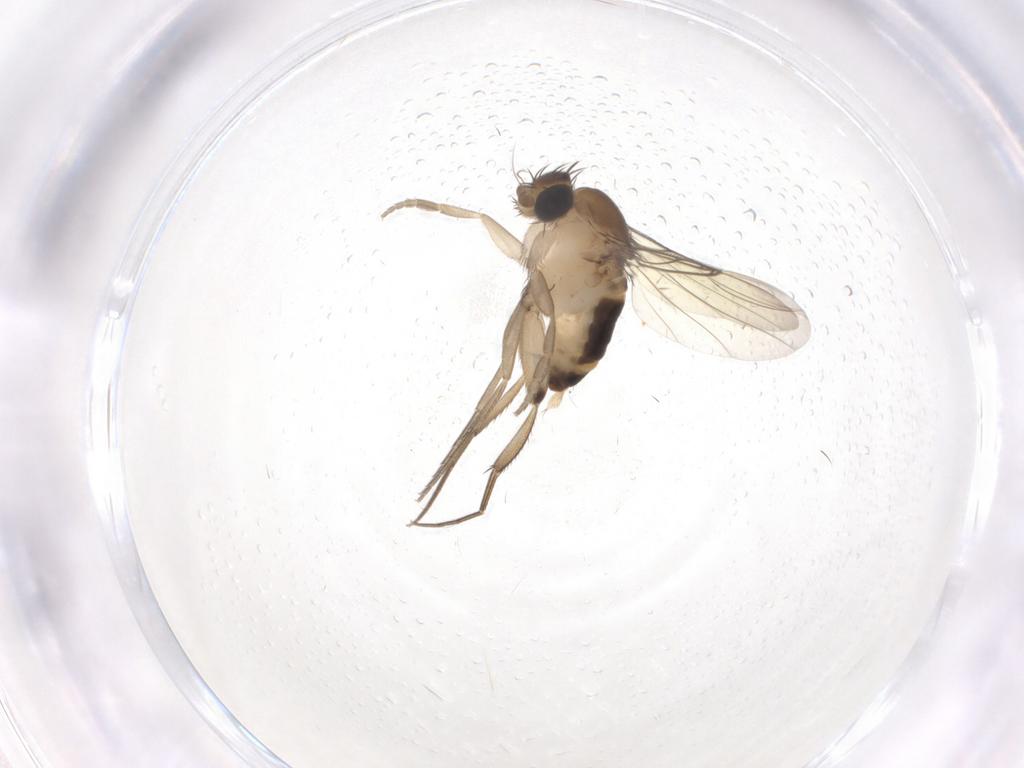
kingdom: Animalia
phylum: Arthropoda
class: Insecta
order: Diptera
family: Phoridae
